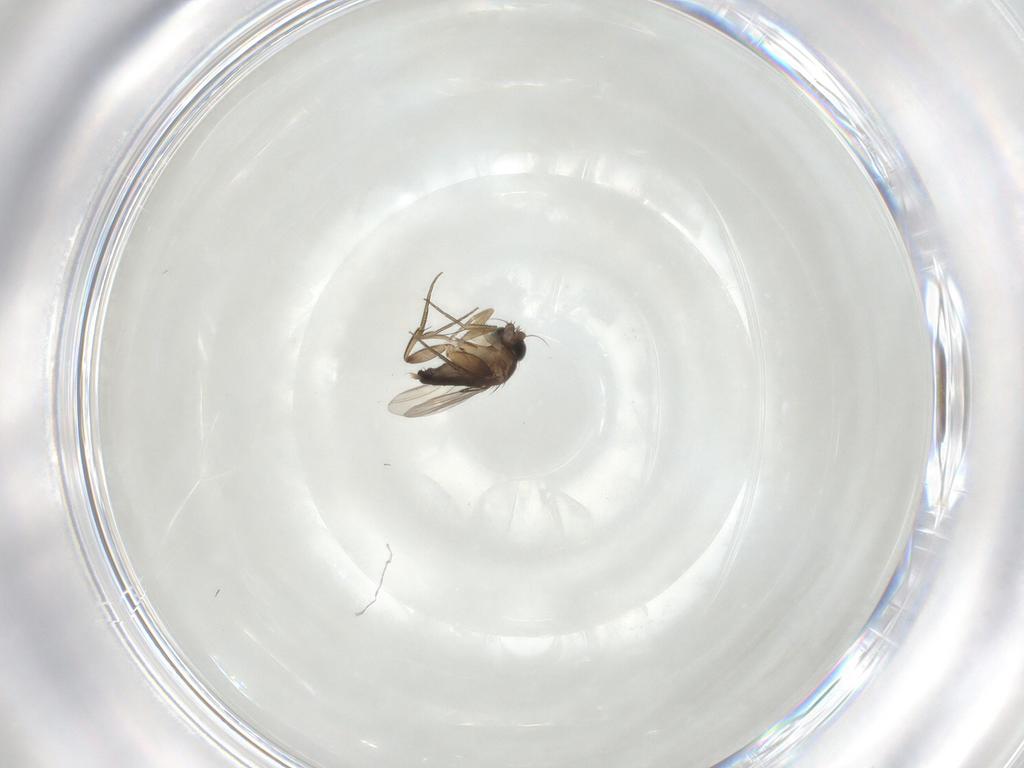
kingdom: Animalia
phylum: Arthropoda
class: Insecta
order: Diptera
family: Phoridae
